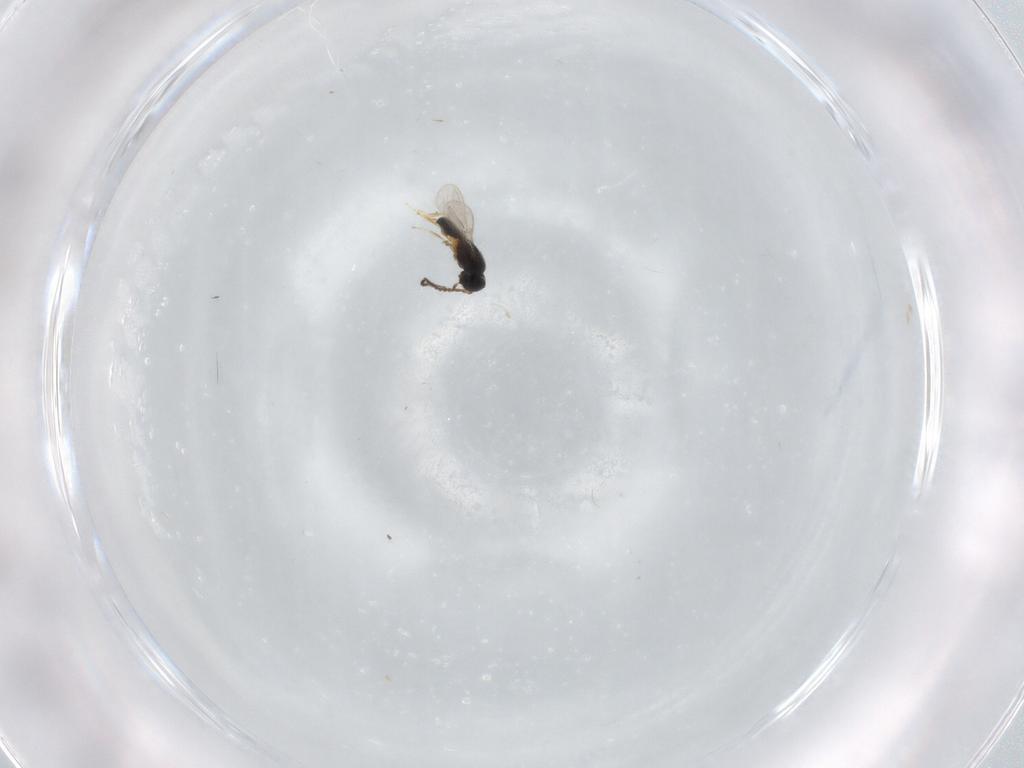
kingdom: Animalia
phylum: Arthropoda
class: Insecta
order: Hymenoptera
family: Scelionidae
